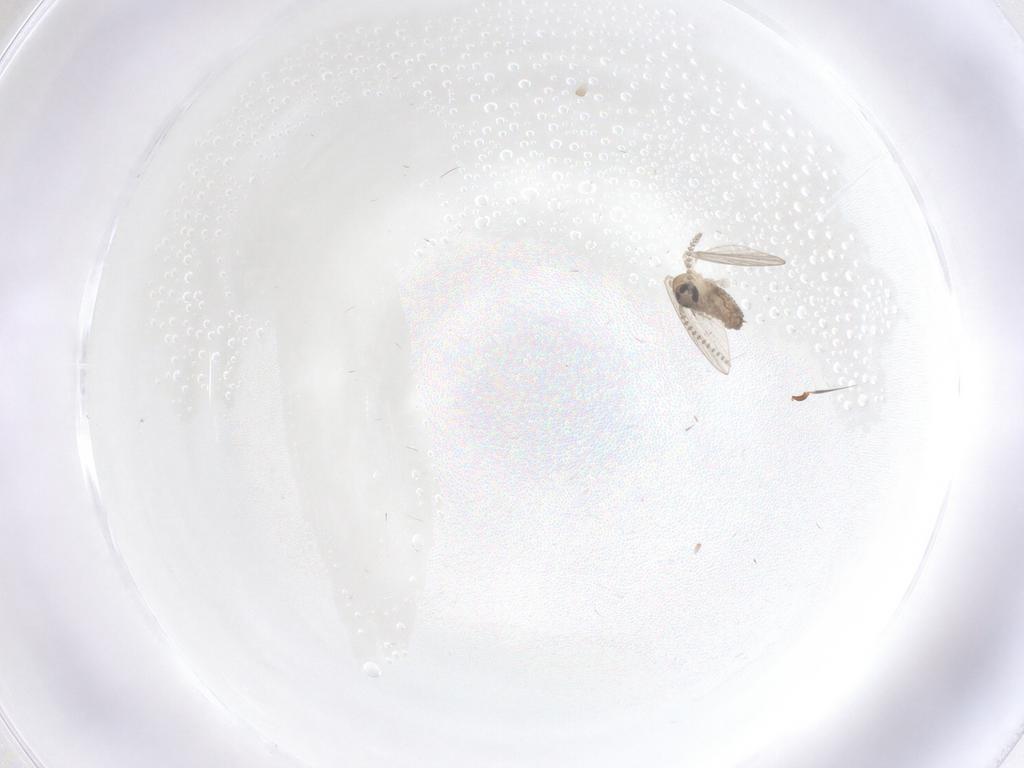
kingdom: Animalia
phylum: Arthropoda
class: Insecta
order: Diptera
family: Psychodidae
